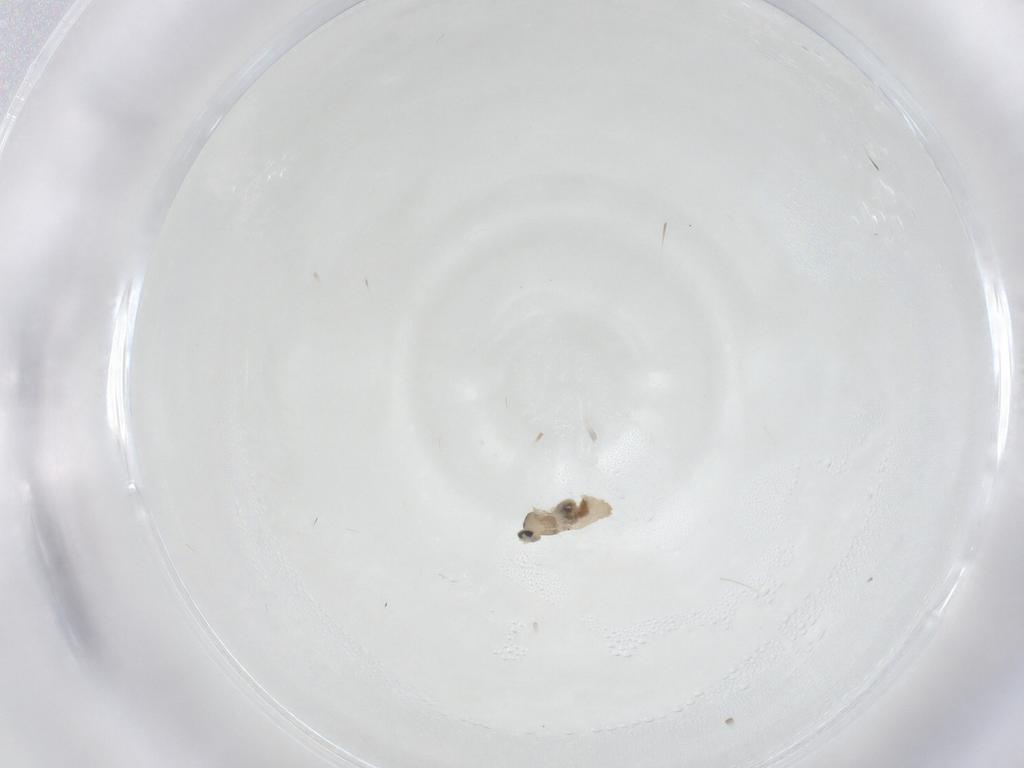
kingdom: Animalia
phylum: Arthropoda
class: Insecta
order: Diptera
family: Cecidomyiidae
